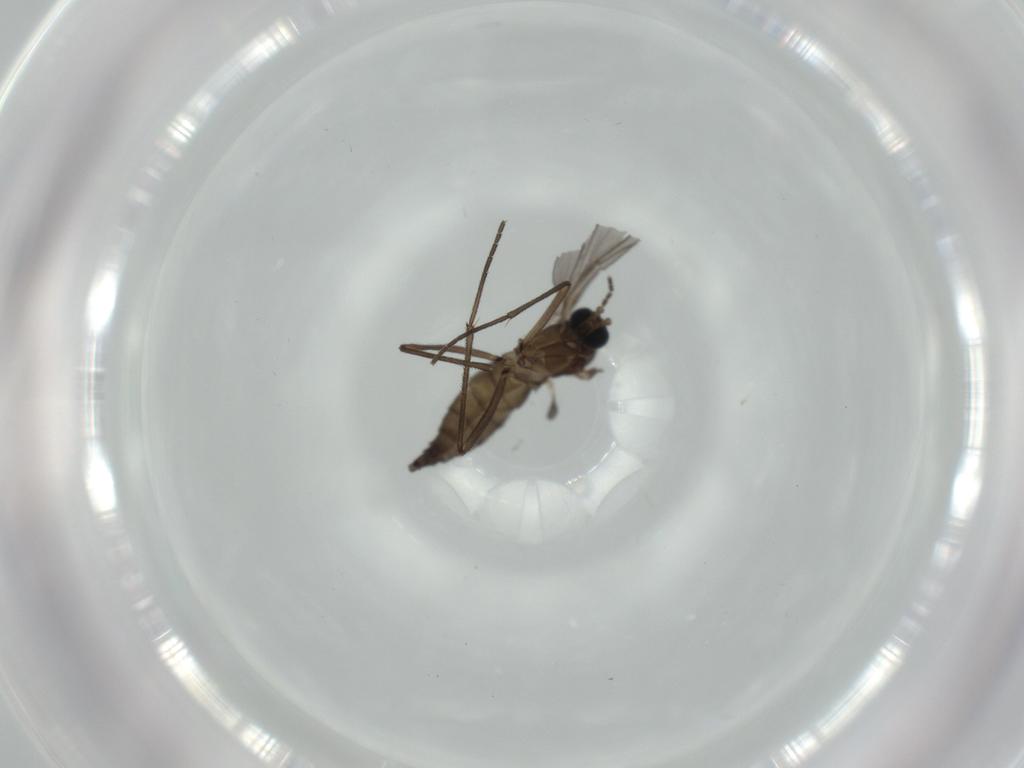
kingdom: Animalia
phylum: Arthropoda
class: Insecta
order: Diptera
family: Sciaridae
